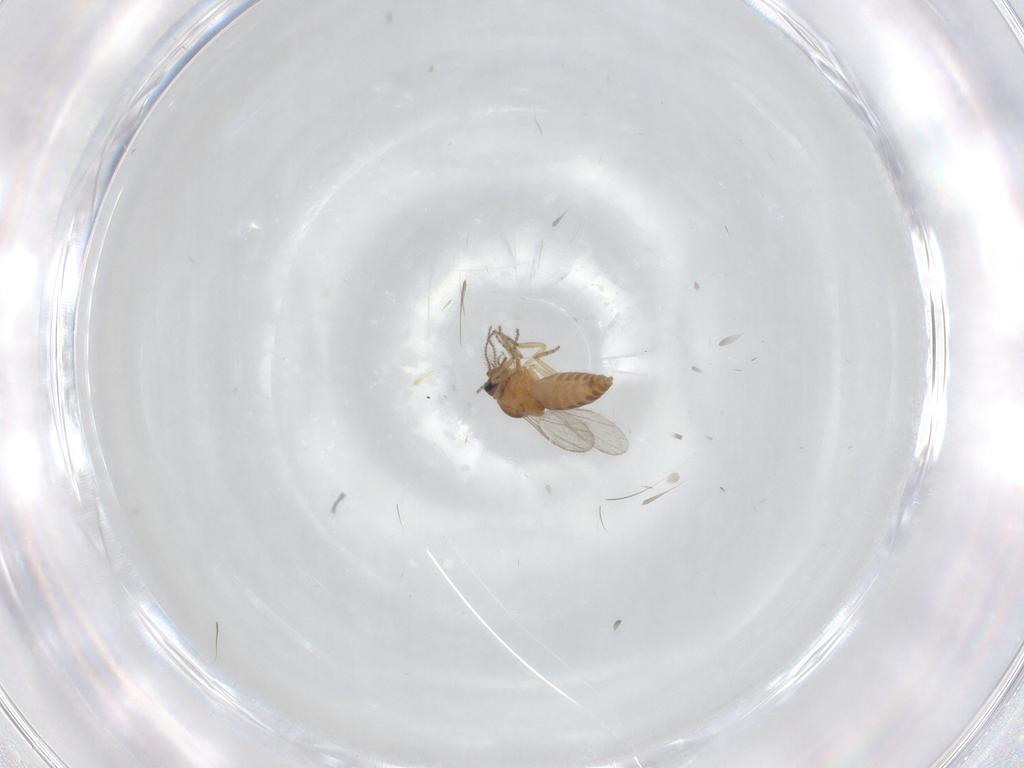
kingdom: Animalia
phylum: Arthropoda
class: Insecta
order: Diptera
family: Ceratopogonidae
